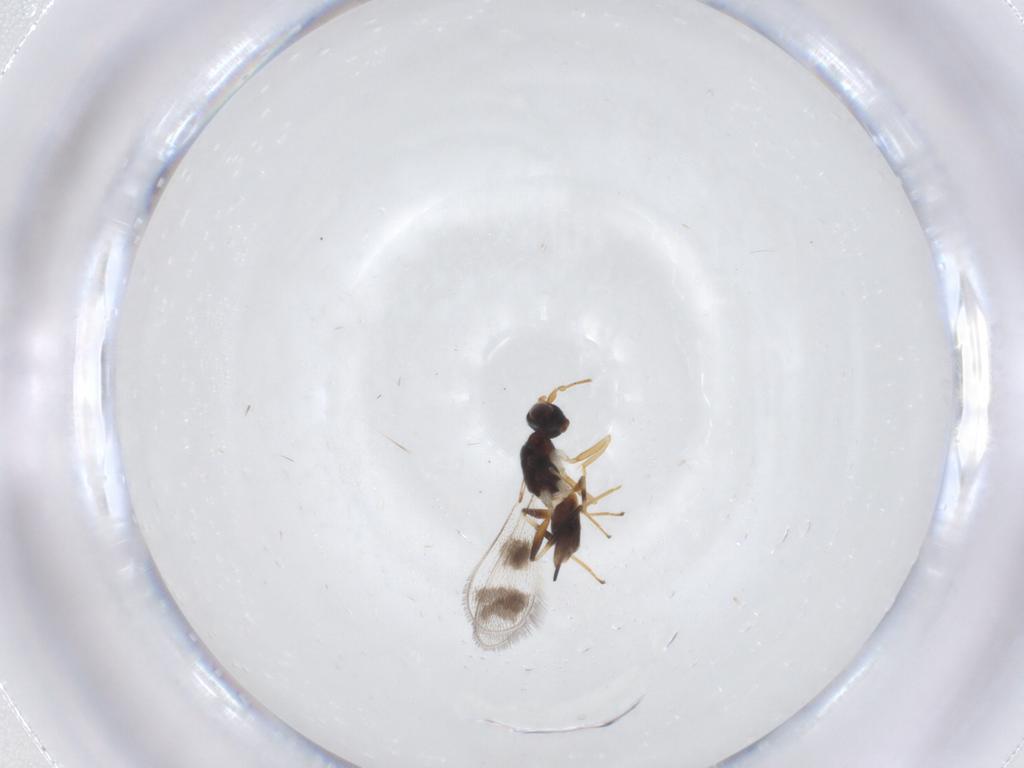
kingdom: Animalia
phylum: Arthropoda
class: Insecta
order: Hymenoptera
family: Mymaridae
